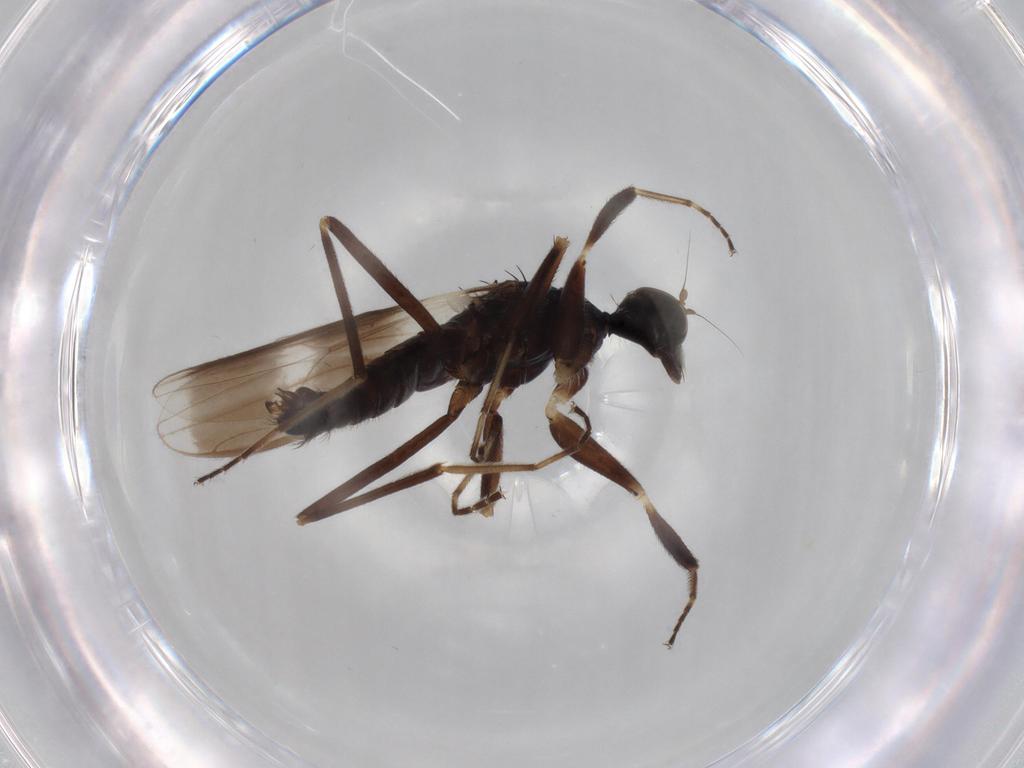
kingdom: Animalia
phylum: Arthropoda
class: Insecta
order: Diptera
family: Hybotidae
